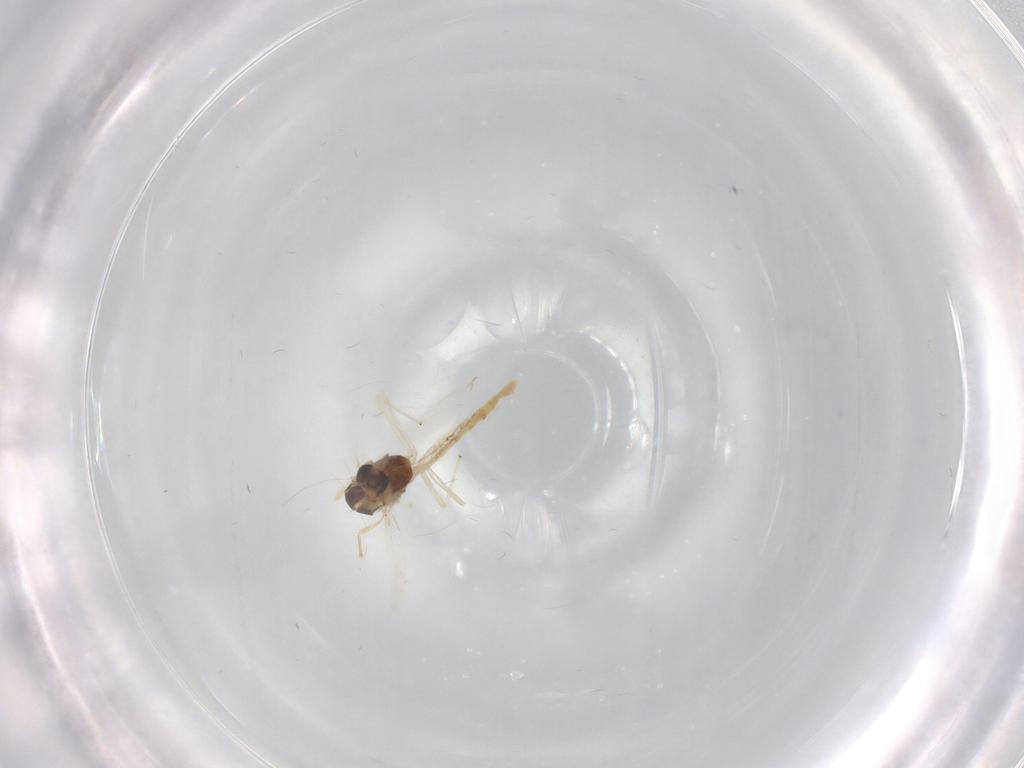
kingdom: Animalia
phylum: Arthropoda
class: Insecta
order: Diptera
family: Chironomidae
